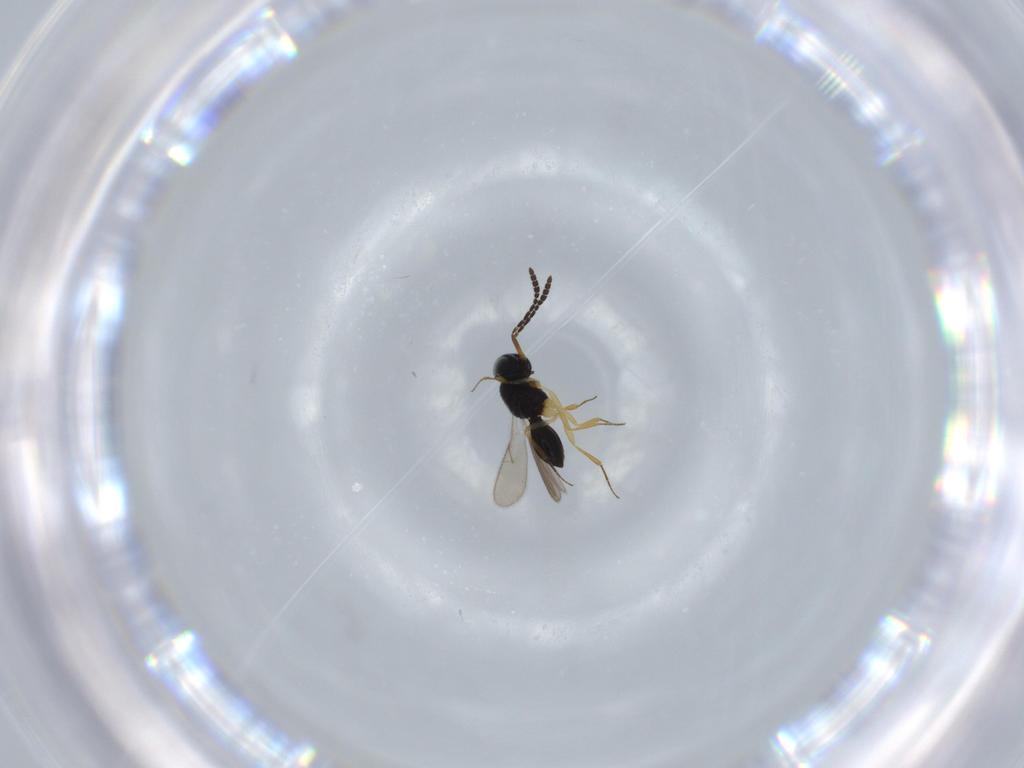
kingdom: Animalia
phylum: Arthropoda
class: Insecta
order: Hymenoptera
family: Scelionidae
